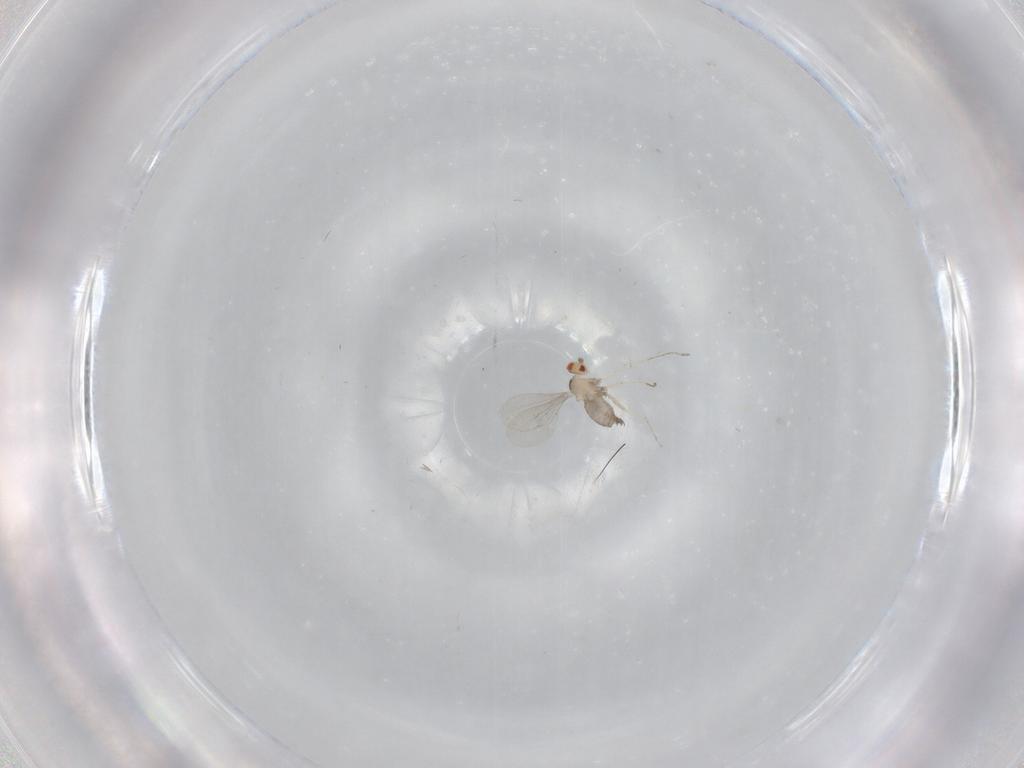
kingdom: Animalia
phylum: Arthropoda
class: Insecta
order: Diptera
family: Cecidomyiidae
